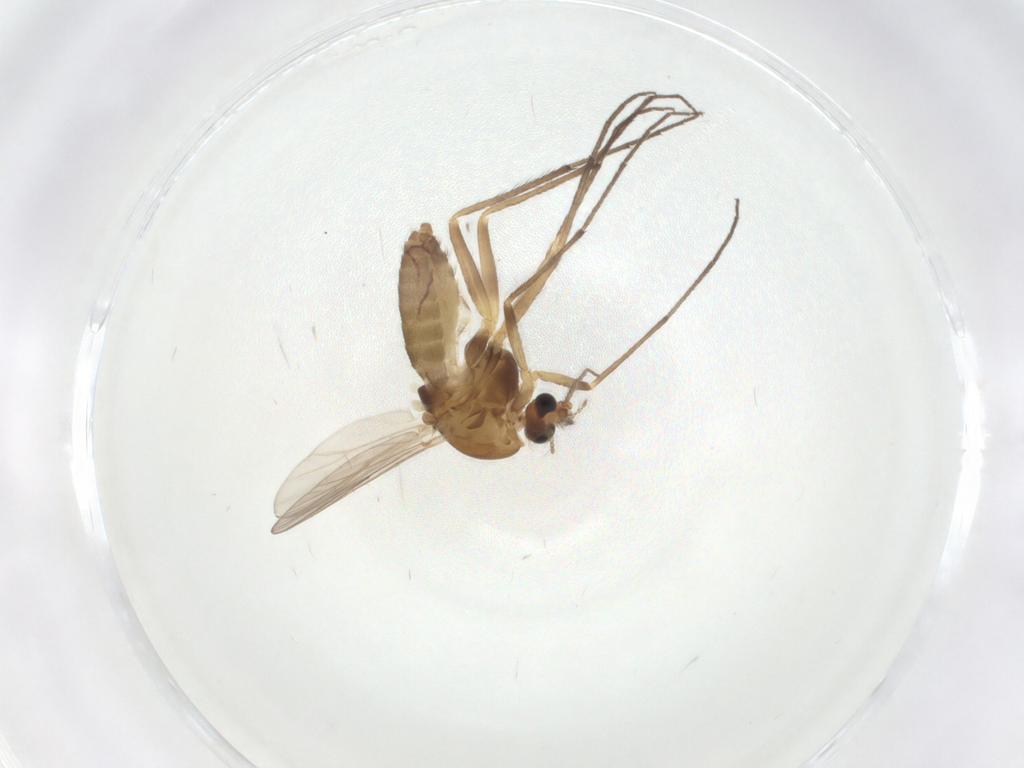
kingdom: Animalia
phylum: Arthropoda
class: Insecta
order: Diptera
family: Chironomidae
